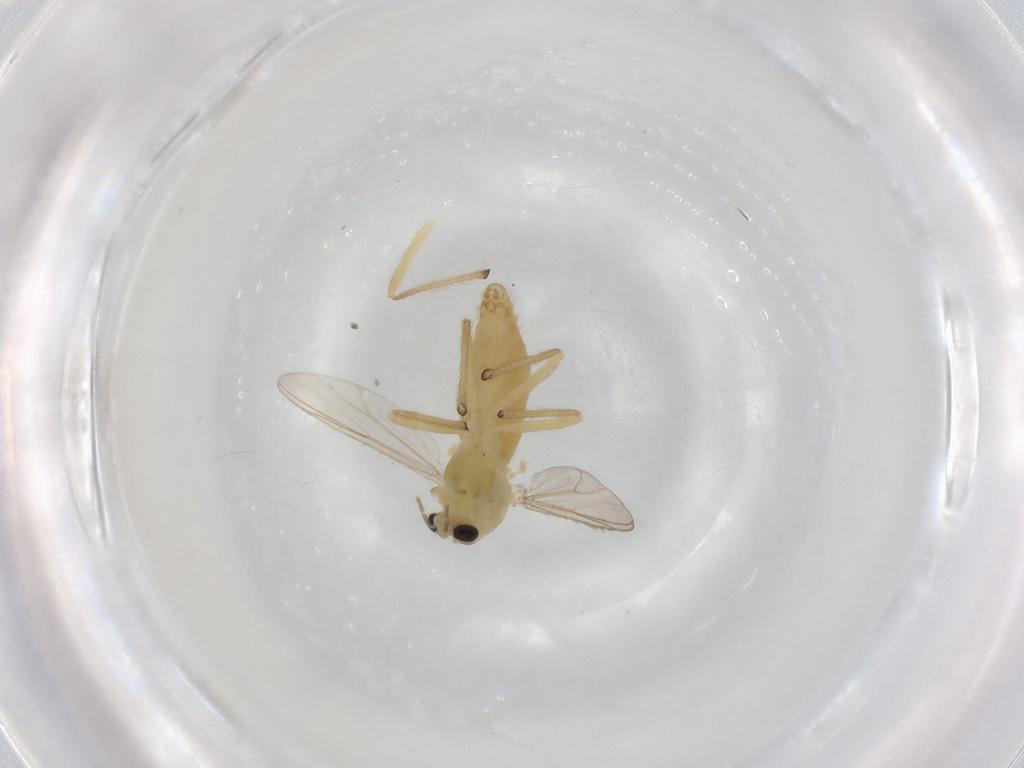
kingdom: Animalia
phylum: Arthropoda
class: Insecta
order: Diptera
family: Chironomidae
